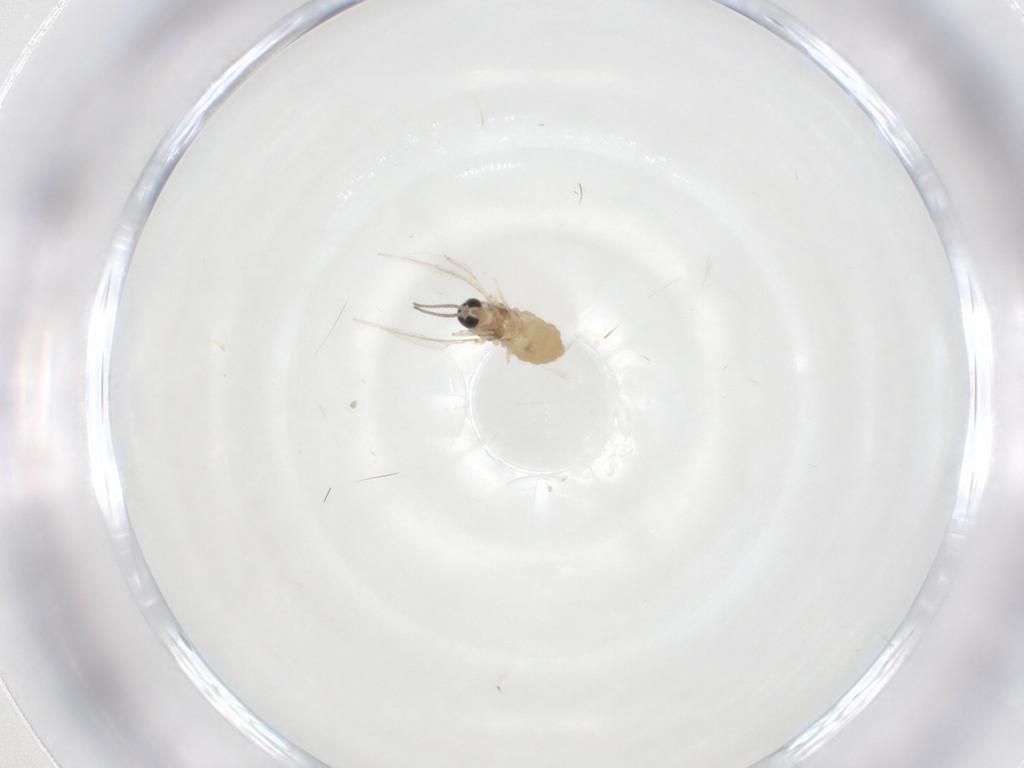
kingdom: Animalia
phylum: Arthropoda
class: Insecta
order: Diptera
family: Cecidomyiidae
